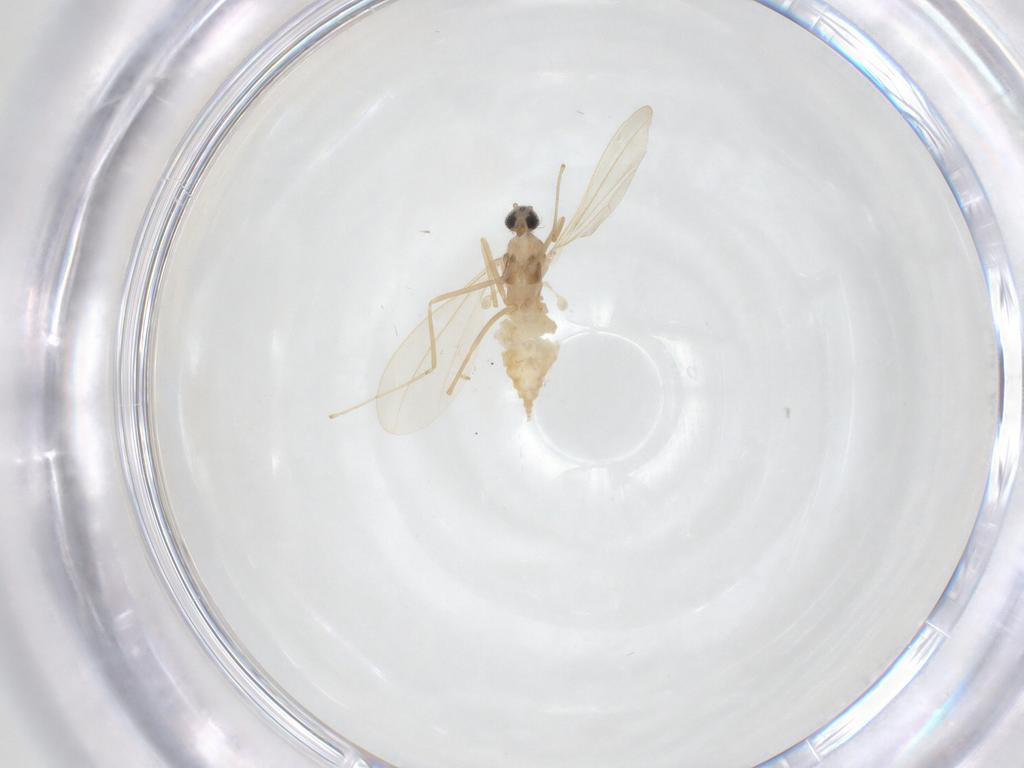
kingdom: Animalia
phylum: Arthropoda
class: Insecta
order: Diptera
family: Cecidomyiidae
